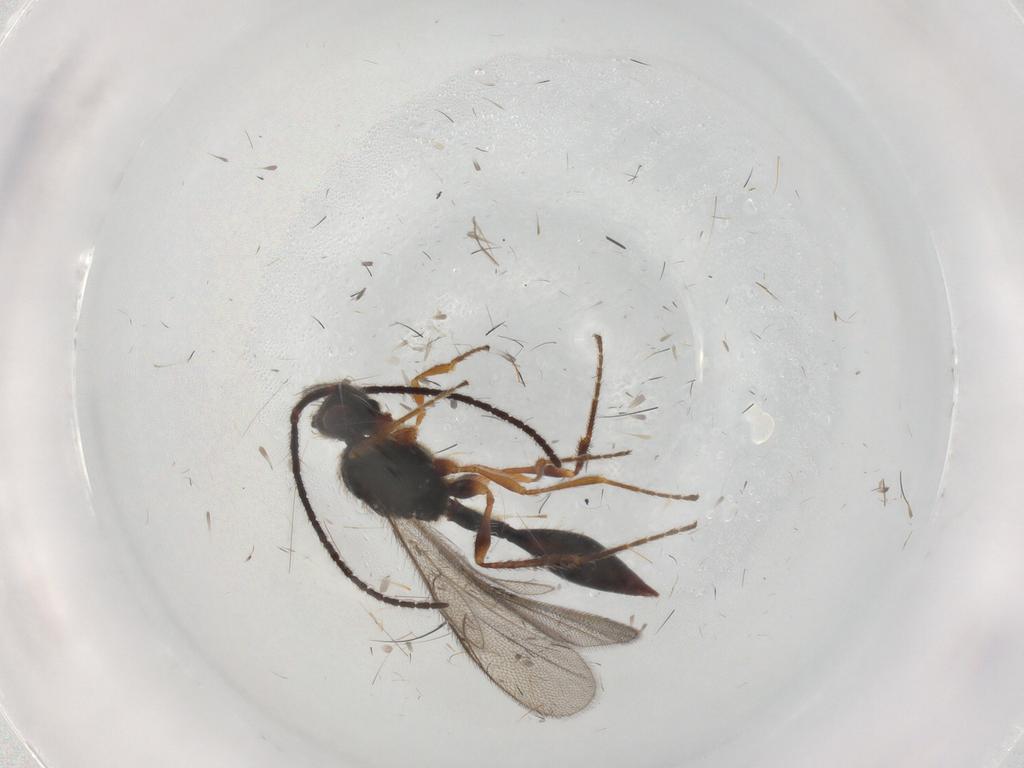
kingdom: Animalia
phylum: Arthropoda
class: Insecta
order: Hymenoptera
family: Diapriidae
